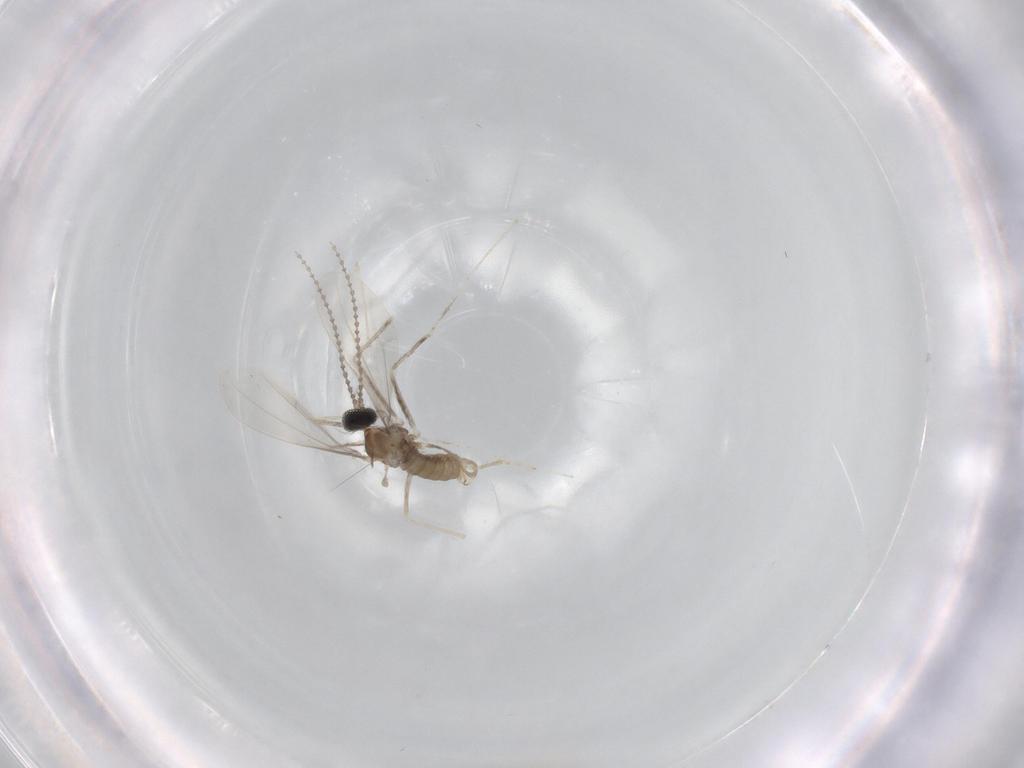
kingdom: Animalia
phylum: Arthropoda
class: Insecta
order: Diptera
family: Cecidomyiidae
